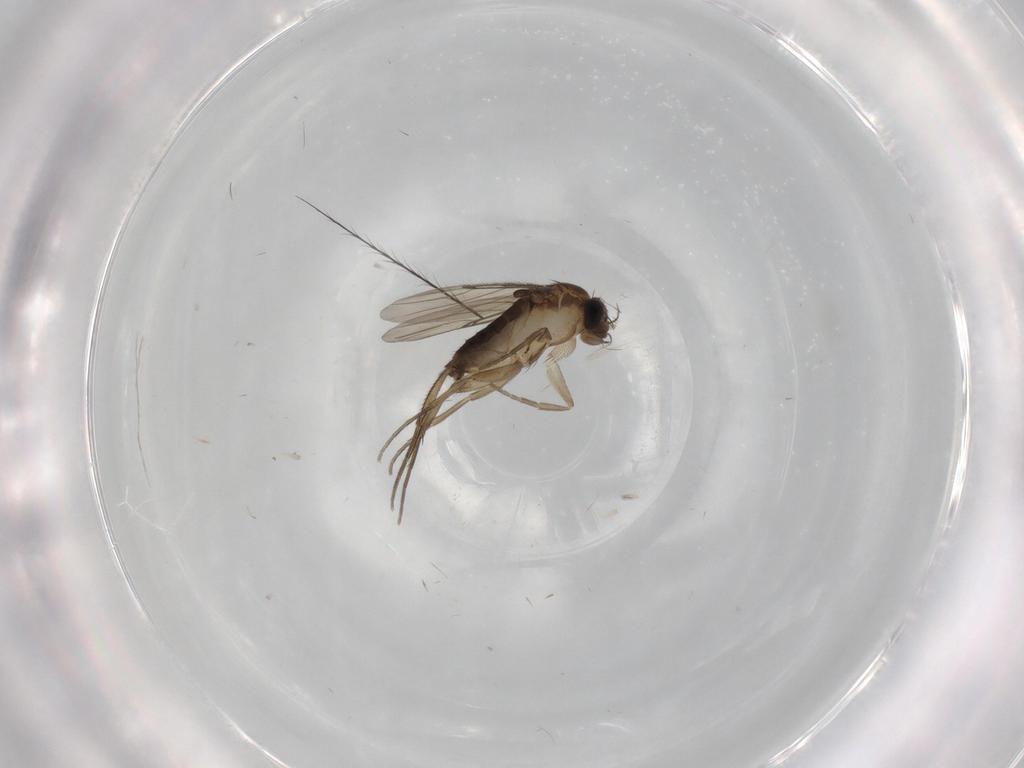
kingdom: Animalia
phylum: Arthropoda
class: Insecta
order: Diptera
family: Phoridae
